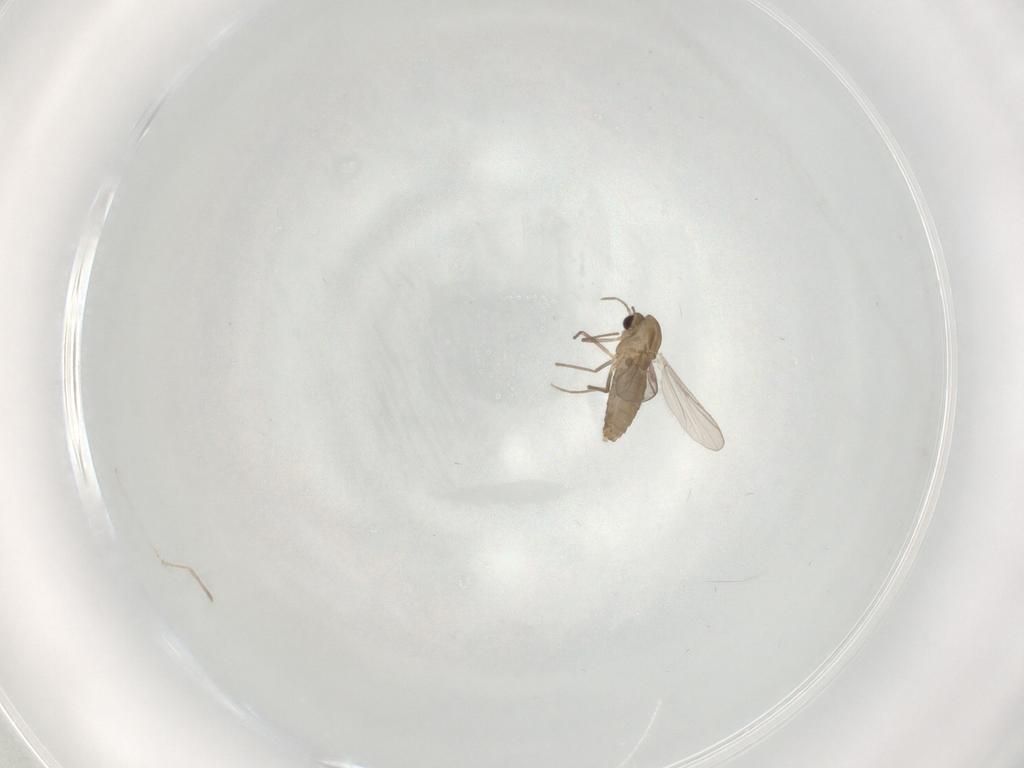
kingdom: Animalia
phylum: Arthropoda
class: Insecta
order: Diptera
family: Chironomidae
